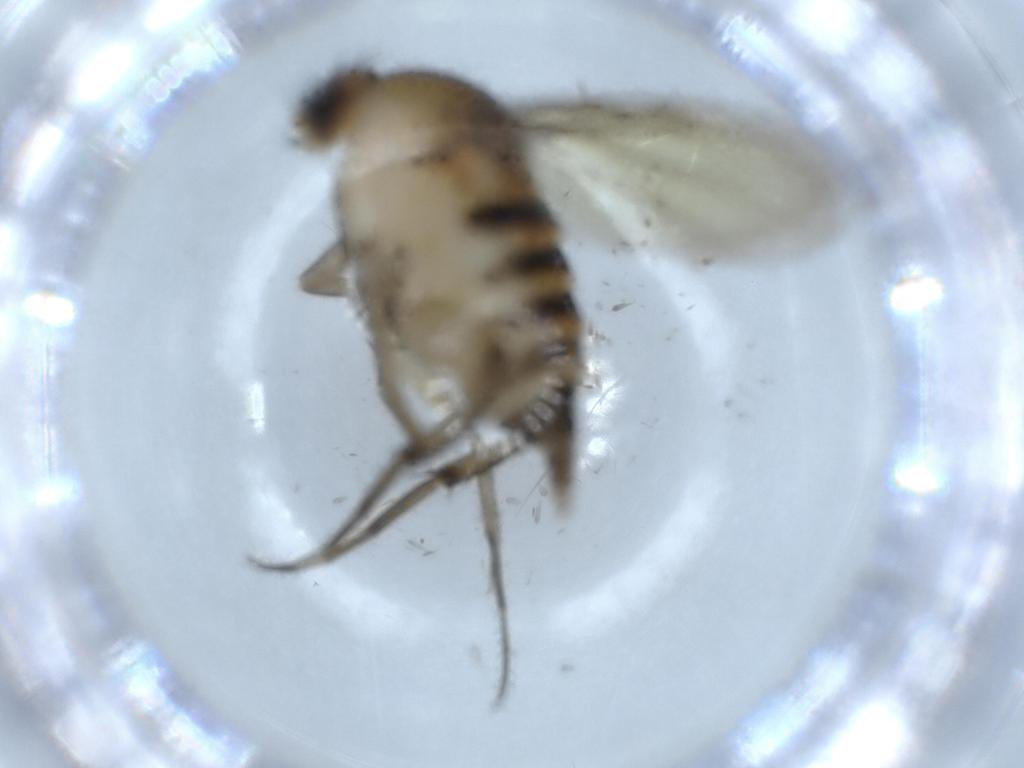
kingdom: Animalia
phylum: Arthropoda
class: Insecta
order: Diptera
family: Phoridae
